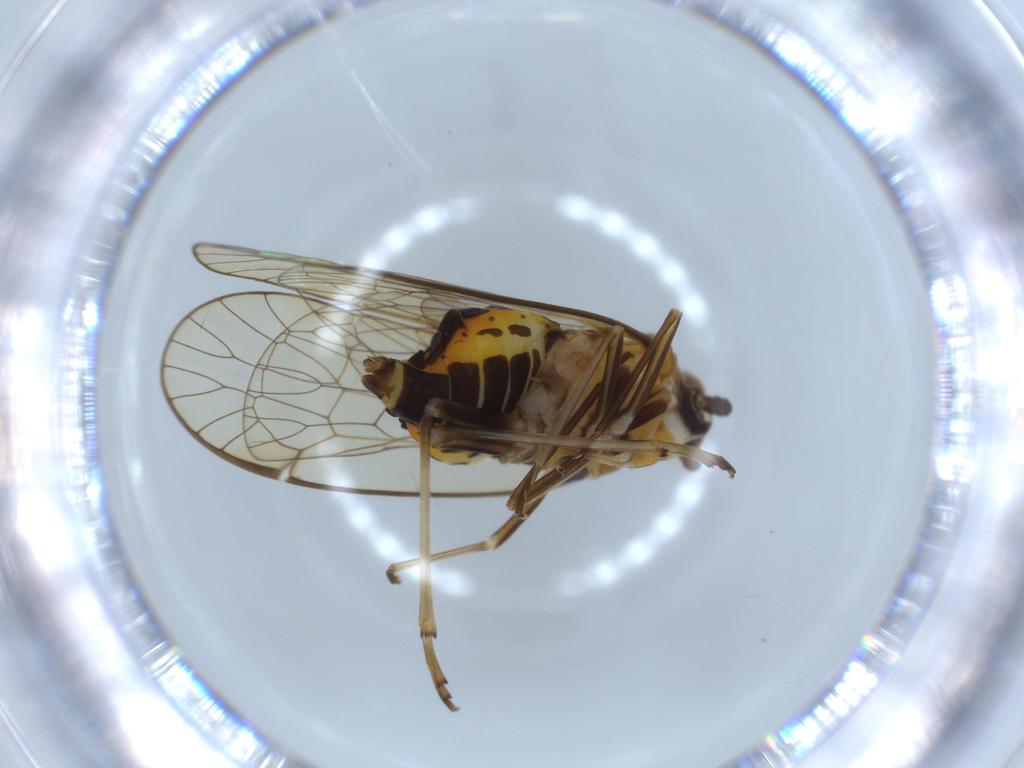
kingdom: Animalia
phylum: Arthropoda
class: Insecta
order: Hemiptera
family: Kinnaridae
